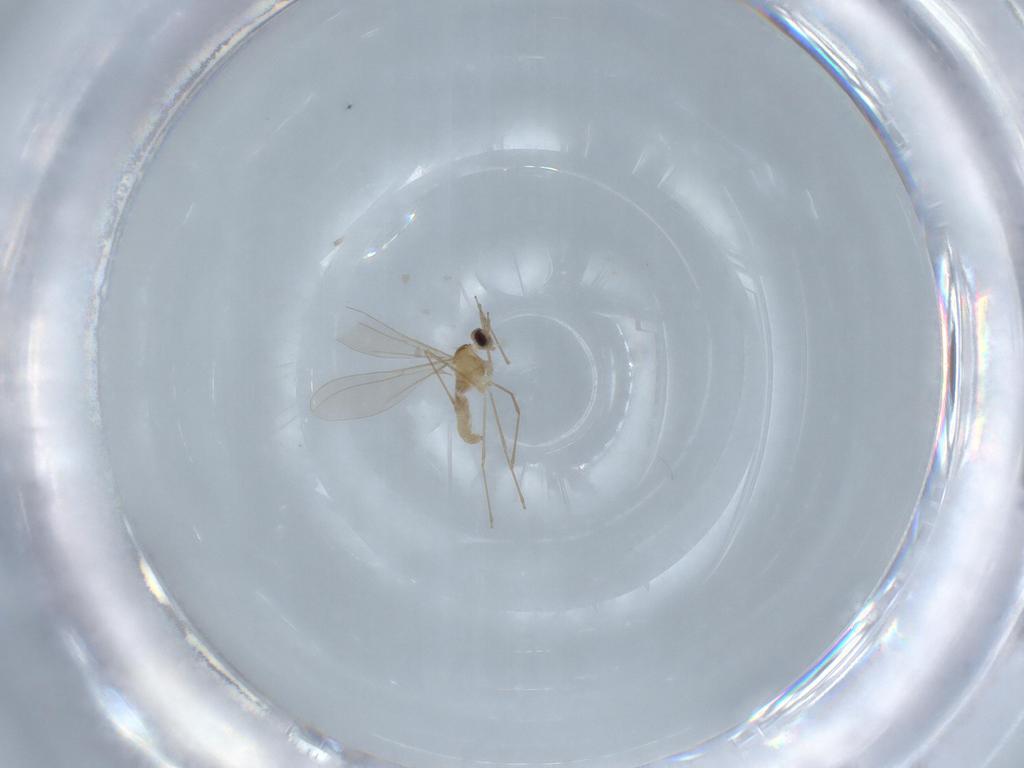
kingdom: Animalia
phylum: Arthropoda
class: Insecta
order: Diptera
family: Cecidomyiidae
